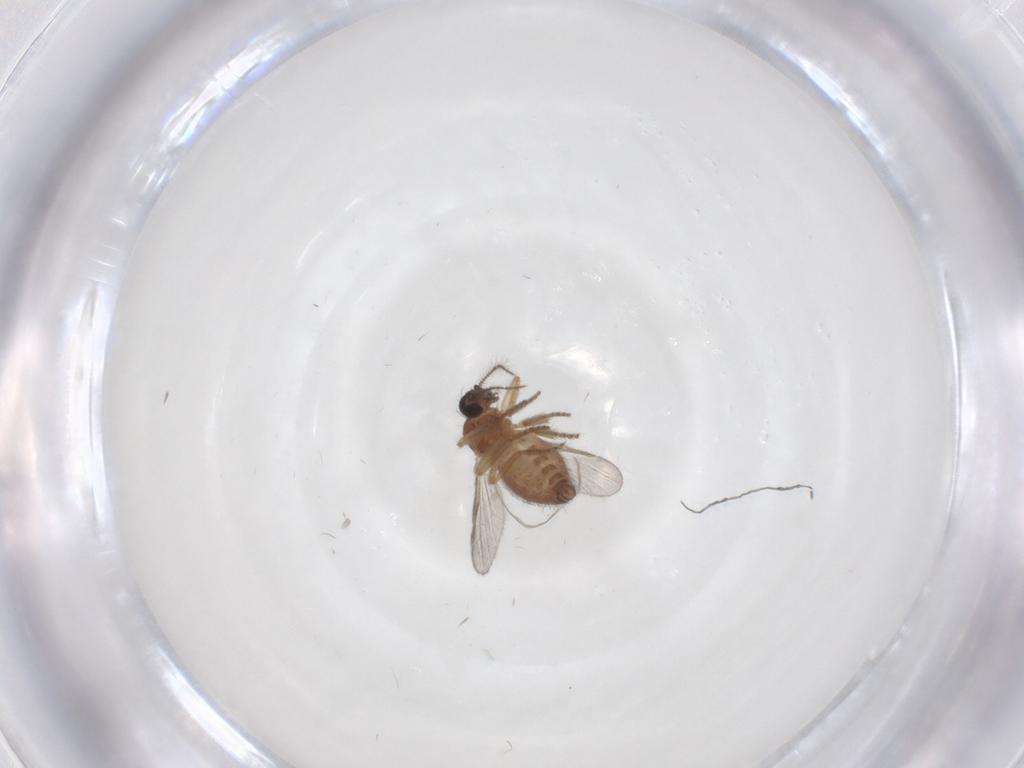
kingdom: Animalia
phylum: Arthropoda
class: Insecta
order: Diptera
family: Ceratopogonidae
